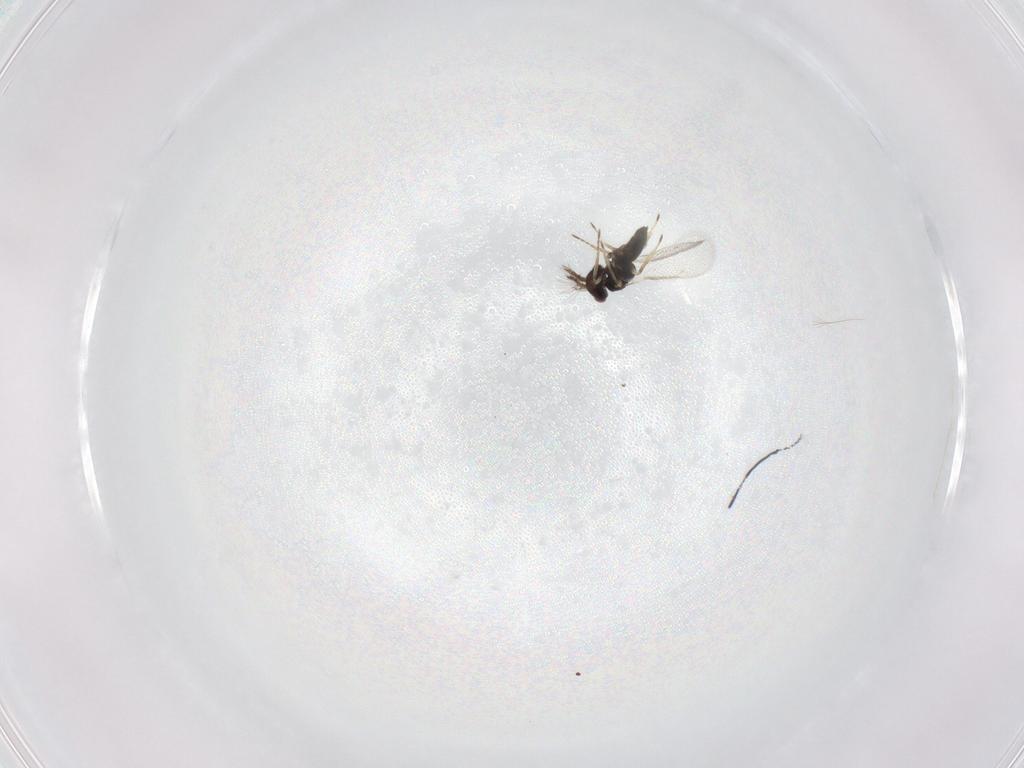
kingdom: Animalia
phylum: Arthropoda
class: Insecta
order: Hymenoptera
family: Eulophidae
